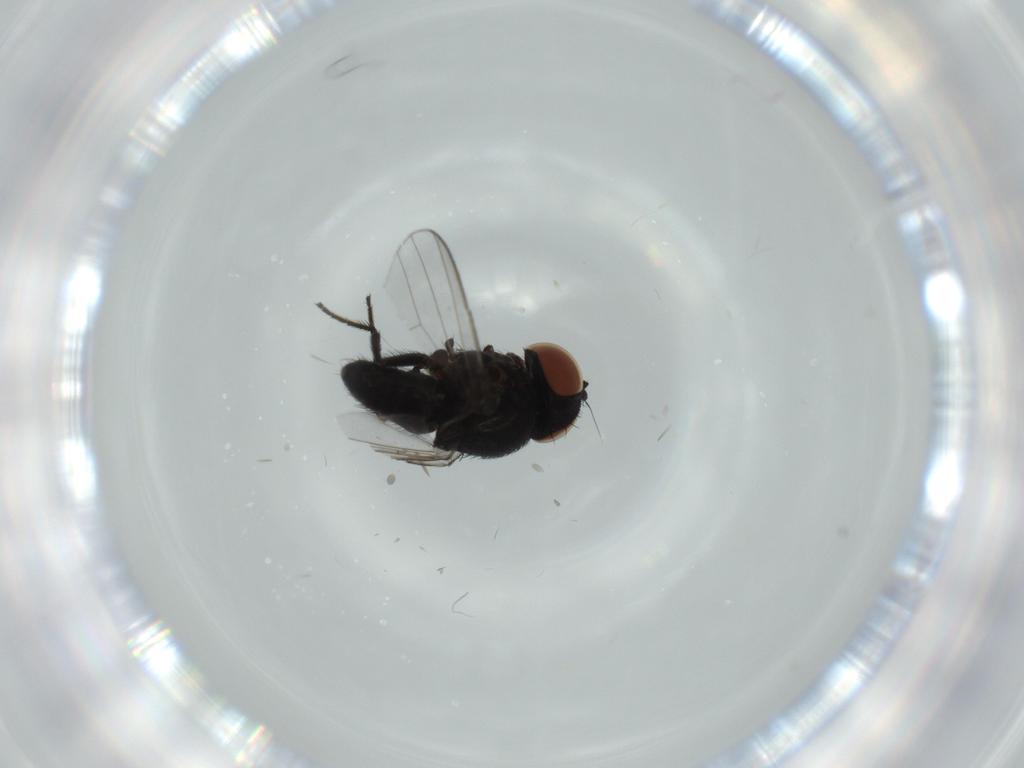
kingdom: Animalia
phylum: Arthropoda
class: Insecta
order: Diptera
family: Milichiidae
